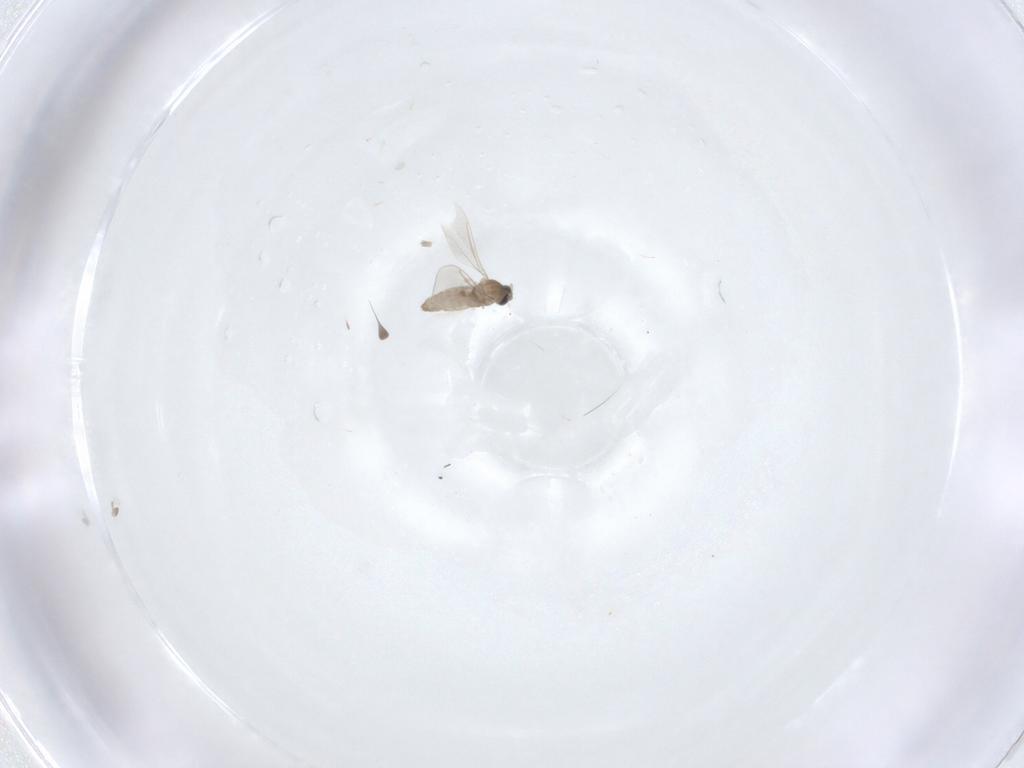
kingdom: Animalia
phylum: Arthropoda
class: Insecta
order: Diptera
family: Cecidomyiidae
